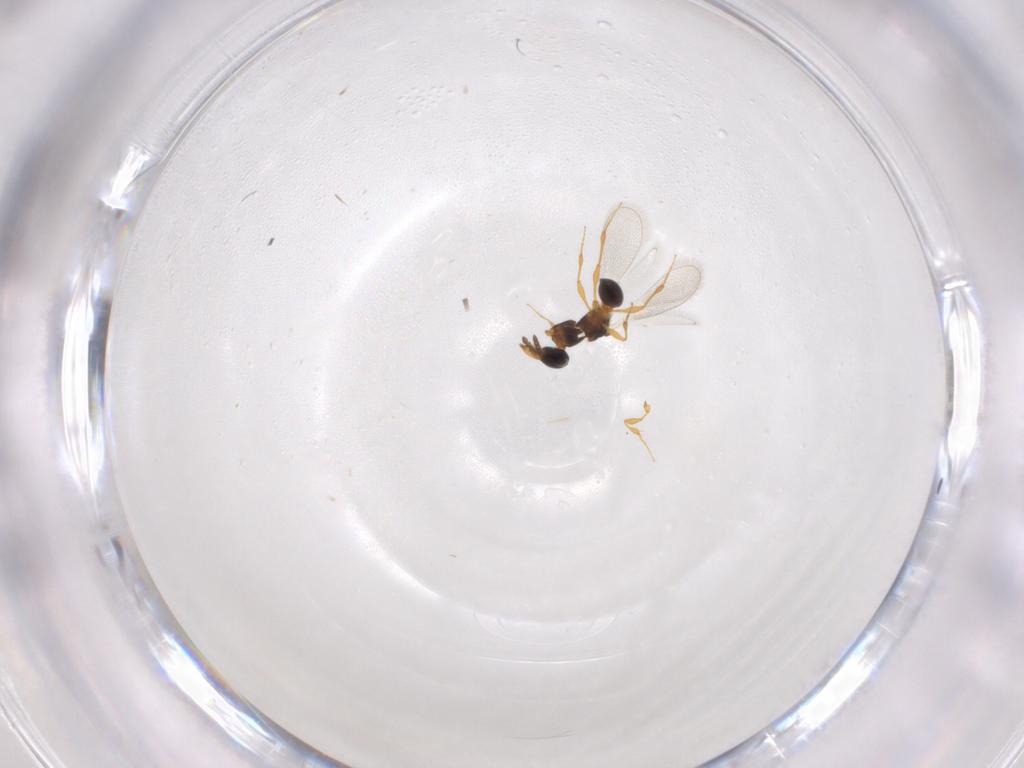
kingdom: Animalia
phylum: Arthropoda
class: Insecta
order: Hymenoptera
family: Platygastridae
